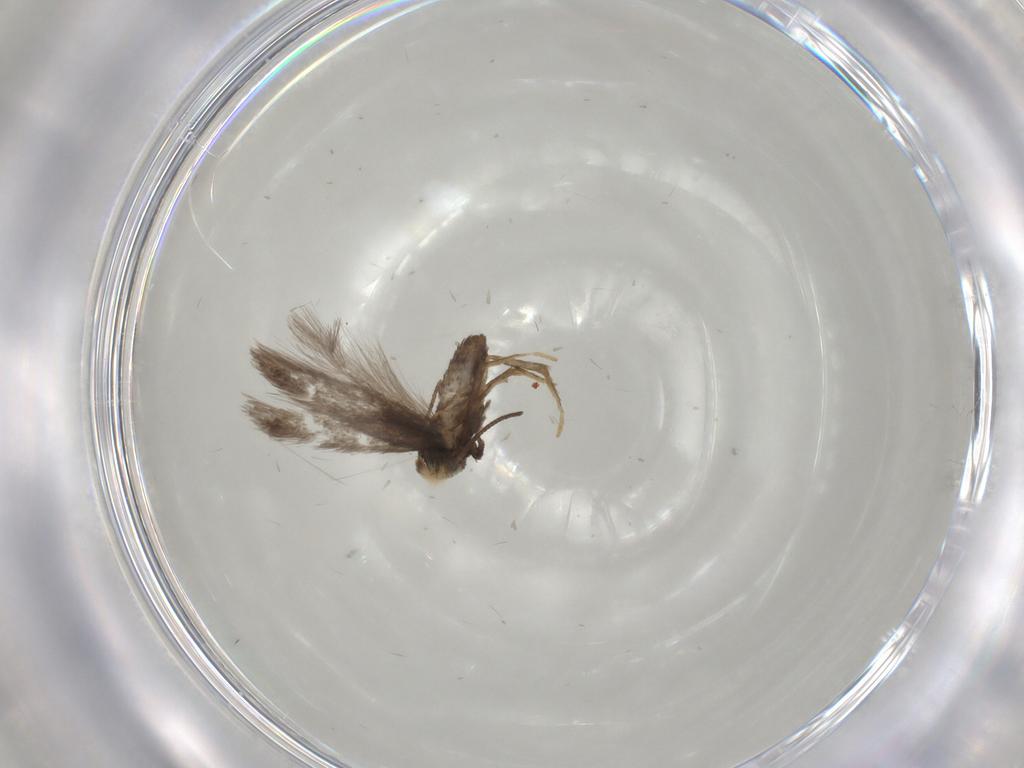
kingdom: Animalia
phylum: Arthropoda
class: Insecta
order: Lepidoptera
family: Nepticulidae
